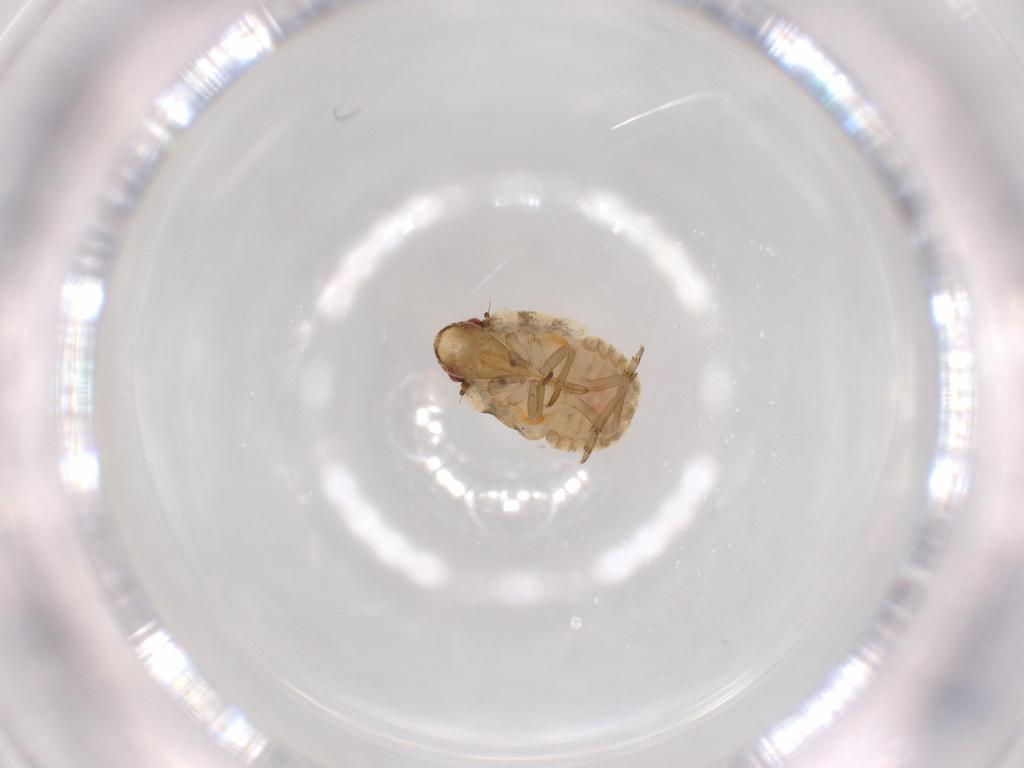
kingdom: Animalia
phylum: Arthropoda
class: Insecta
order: Hemiptera
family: Flatidae
